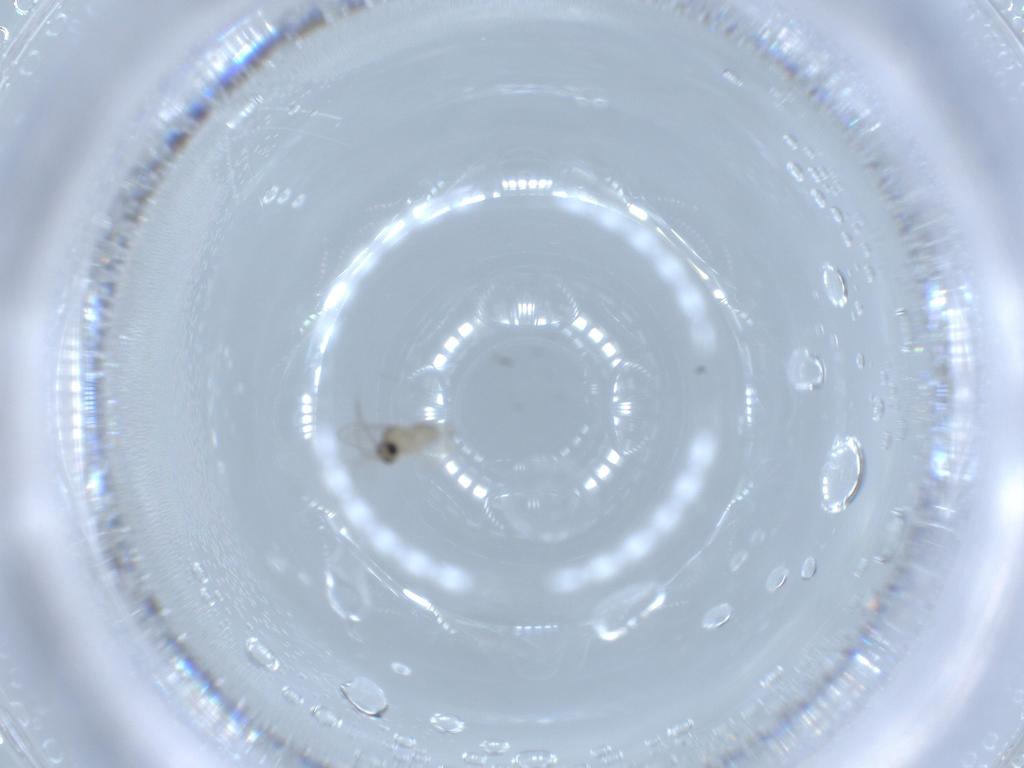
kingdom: Animalia
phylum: Arthropoda
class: Insecta
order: Diptera
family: Cecidomyiidae
